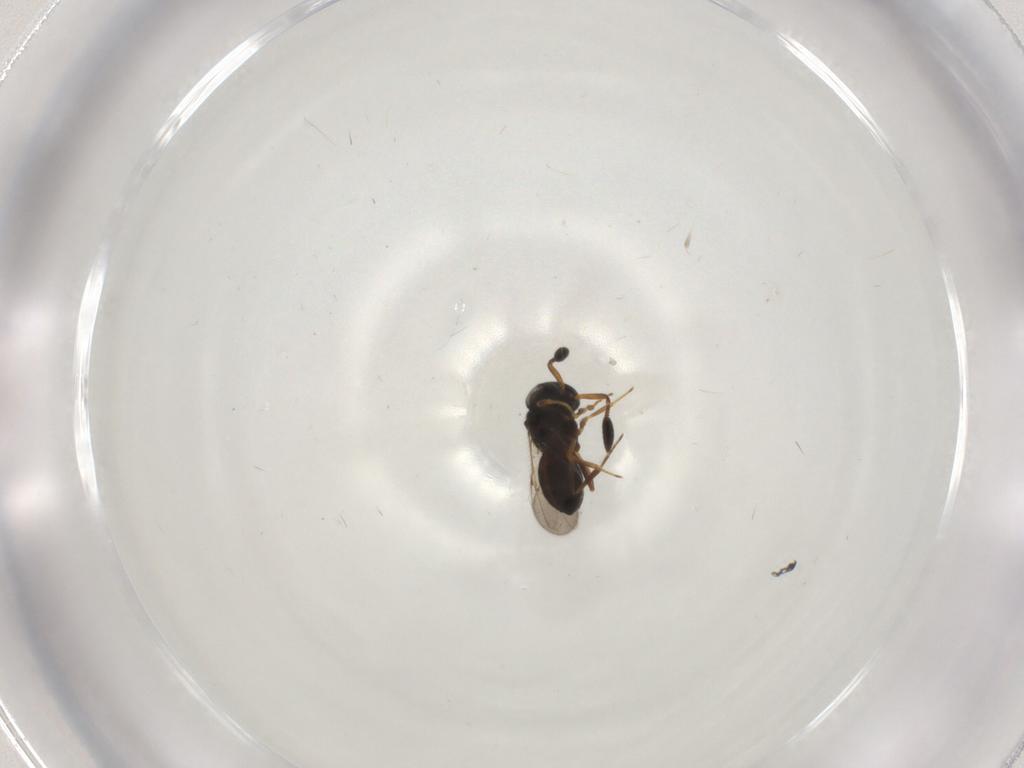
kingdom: Animalia
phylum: Arthropoda
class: Insecta
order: Hymenoptera
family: Scelionidae
